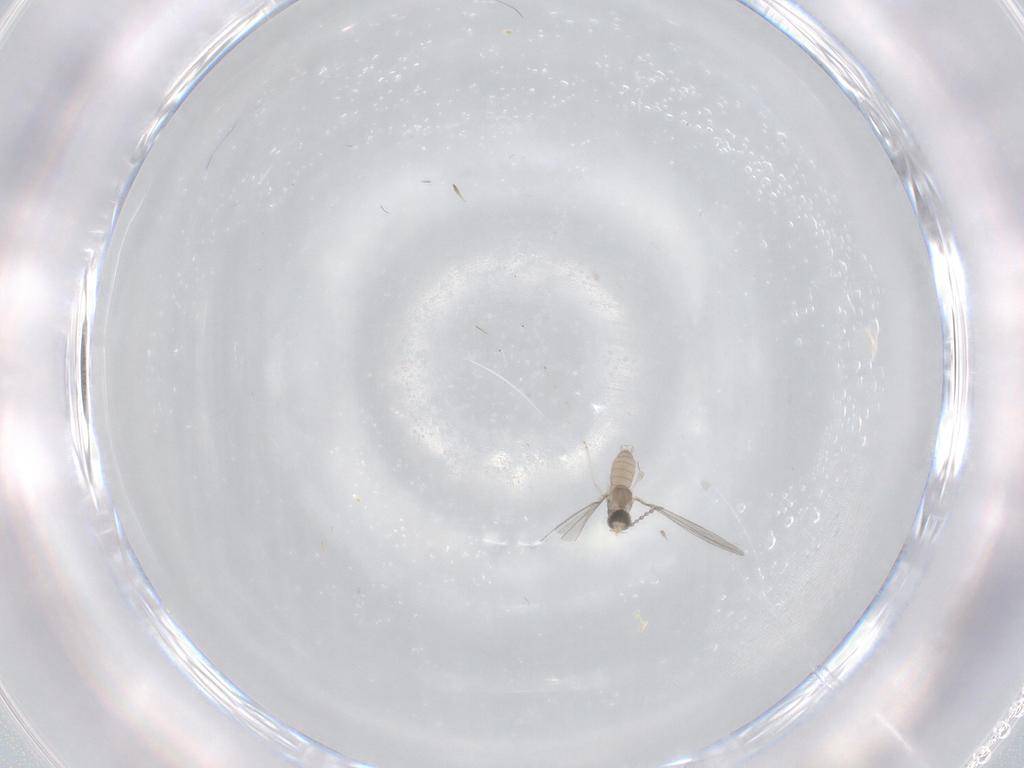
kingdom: Animalia
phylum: Arthropoda
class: Insecta
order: Diptera
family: Cecidomyiidae
